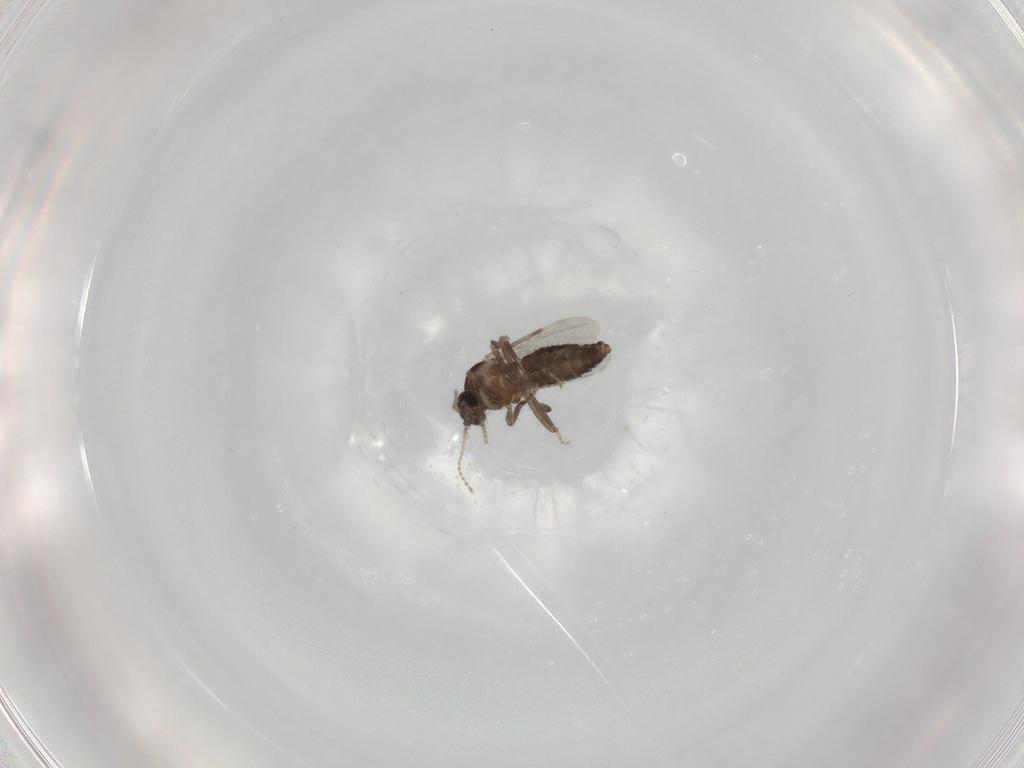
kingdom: Animalia
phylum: Arthropoda
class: Insecta
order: Diptera
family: Ceratopogonidae
